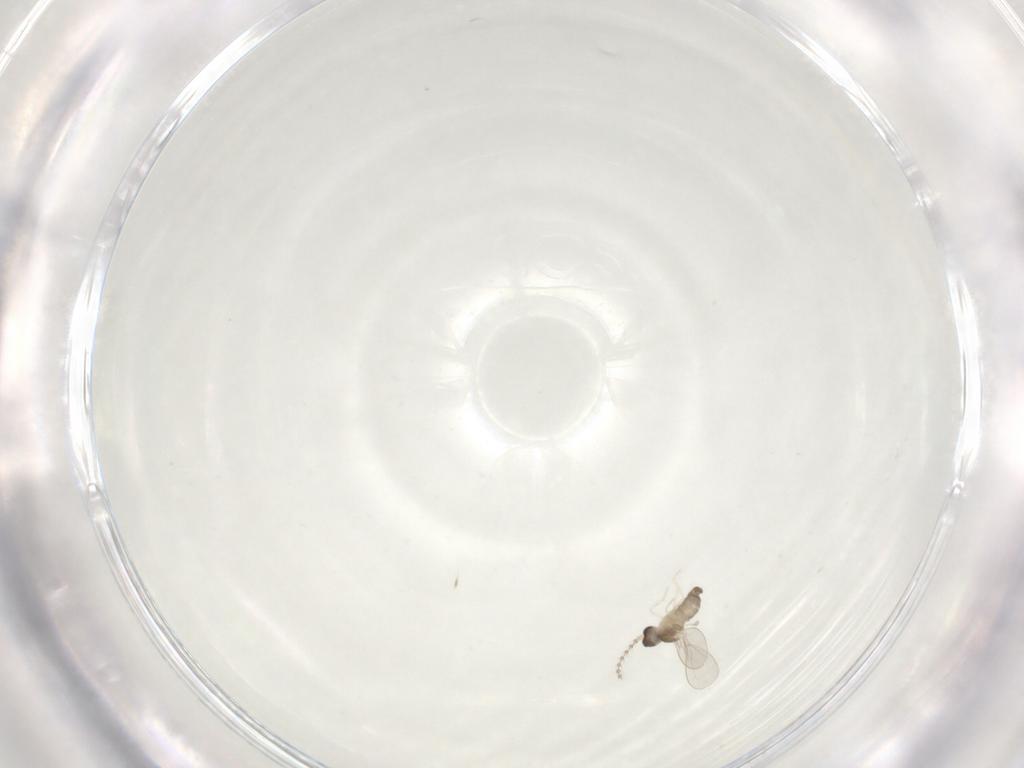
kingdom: Animalia
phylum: Arthropoda
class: Insecta
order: Diptera
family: Cecidomyiidae
